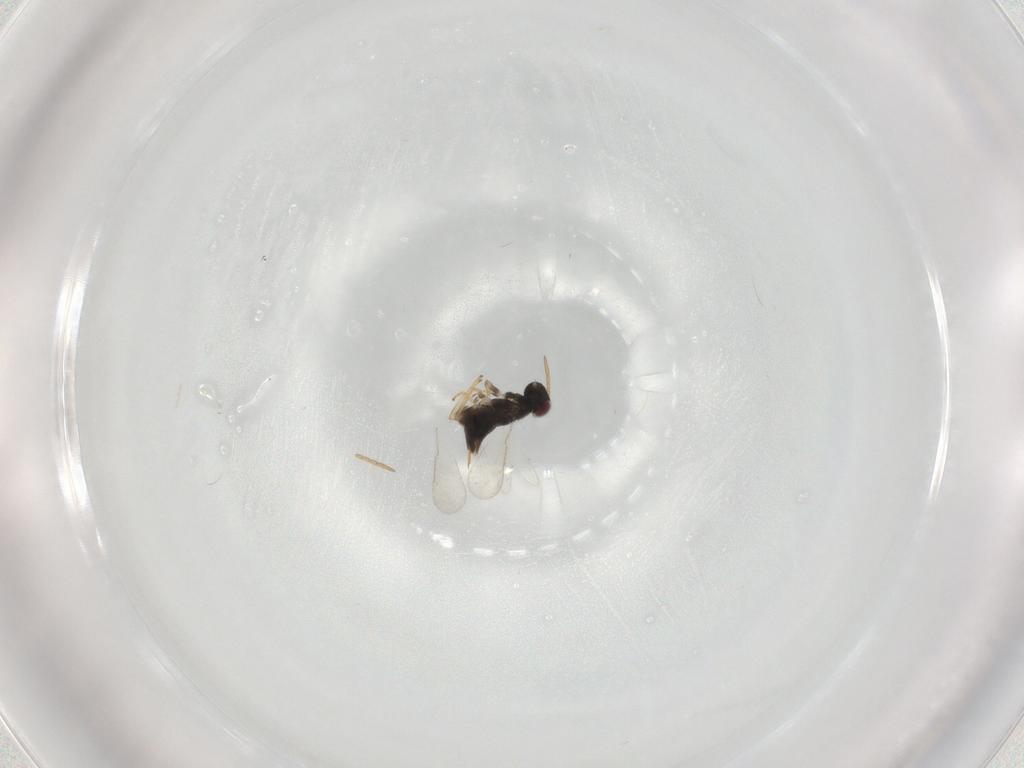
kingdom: Animalia
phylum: Arthropoda
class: Insecta
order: Hymenoptera
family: Aphelinidae
